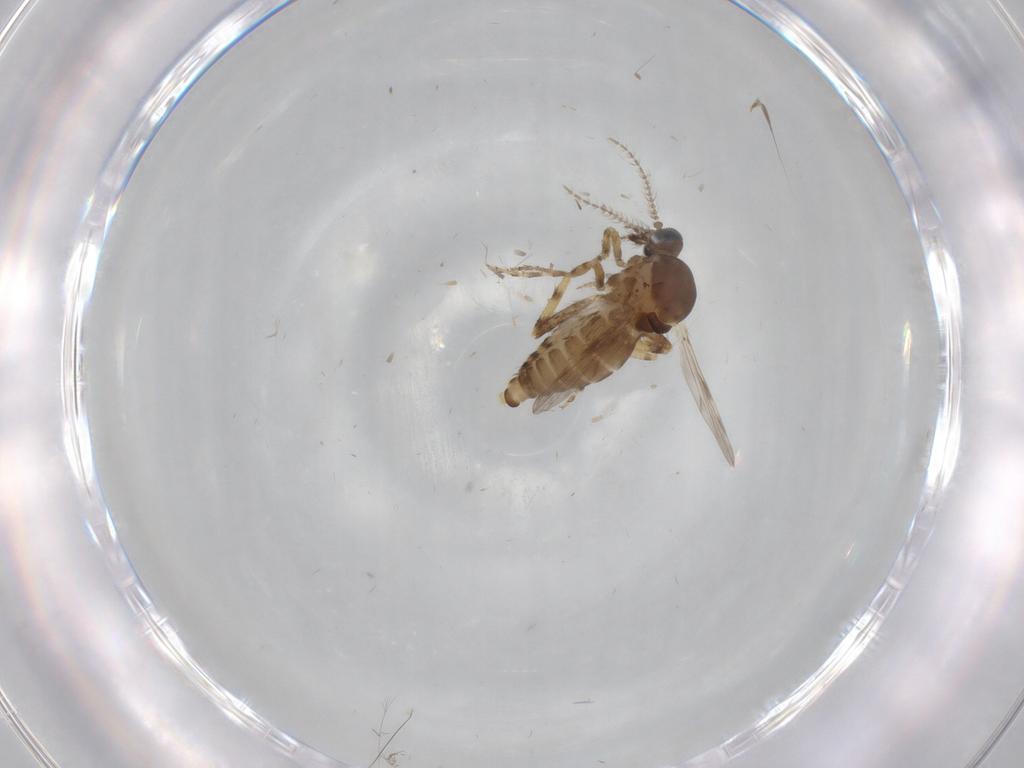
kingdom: Animalia
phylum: Arthropoda
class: Insecta
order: Diptera
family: Ceratopogonidae
